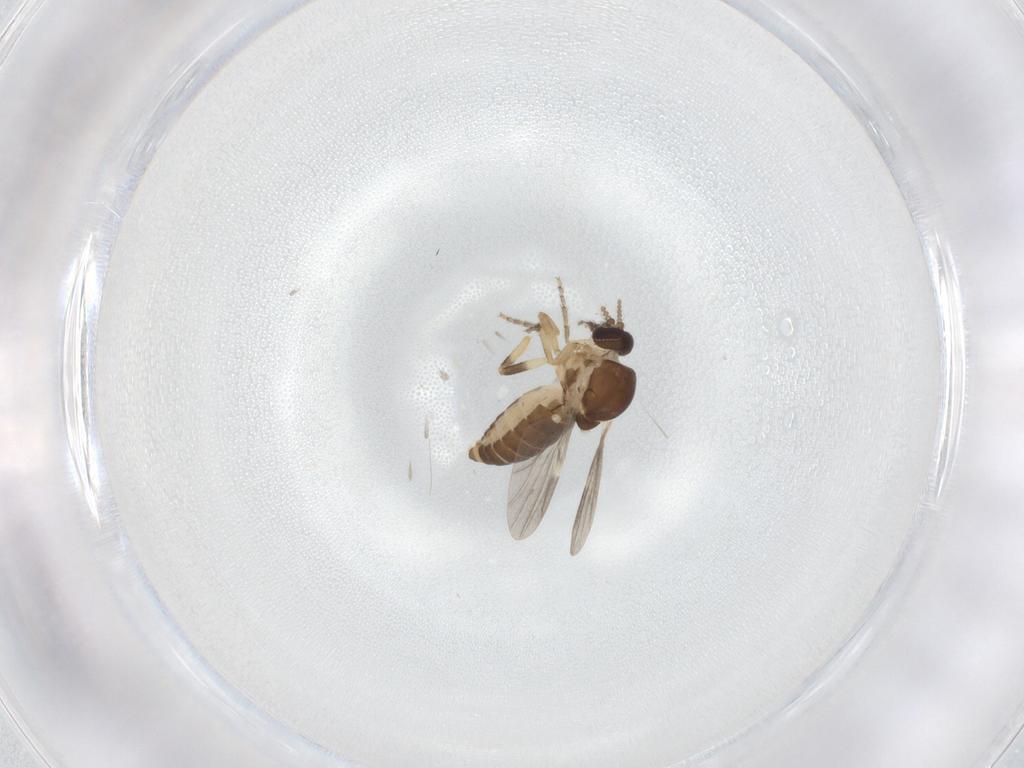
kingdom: Animalia
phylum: Arthropoda
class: Insecta
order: Diptera
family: Ceratopogonidae
